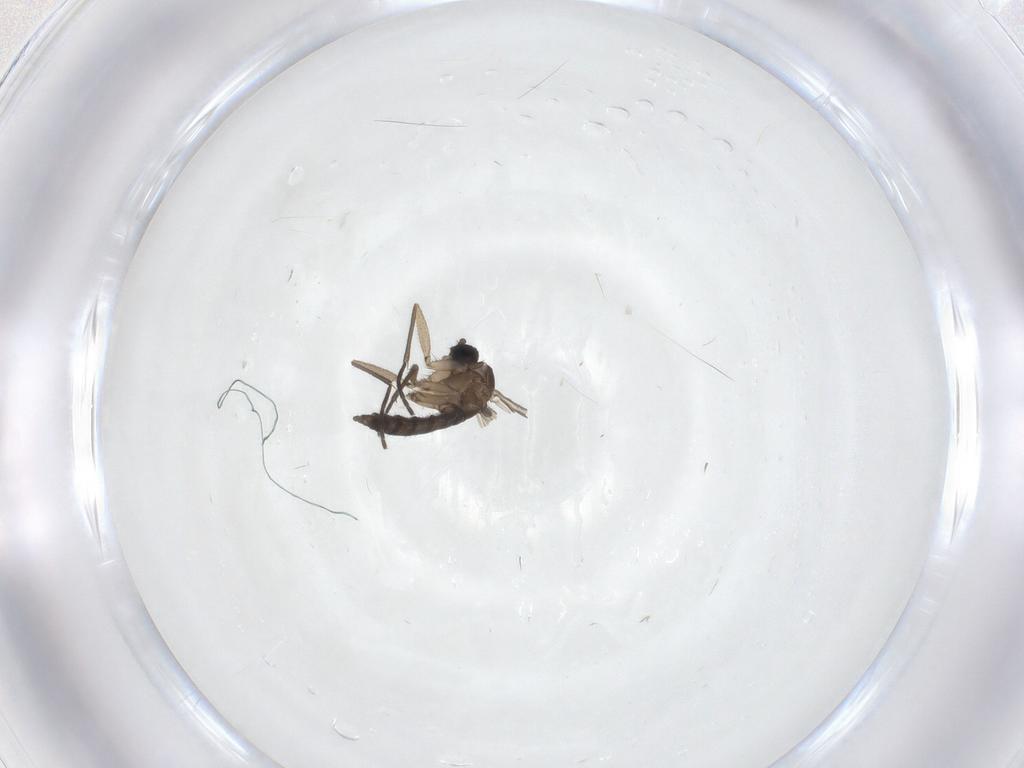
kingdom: Animalia
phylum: Arthropoda
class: Insecta
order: Diptera
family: Sciaridae
